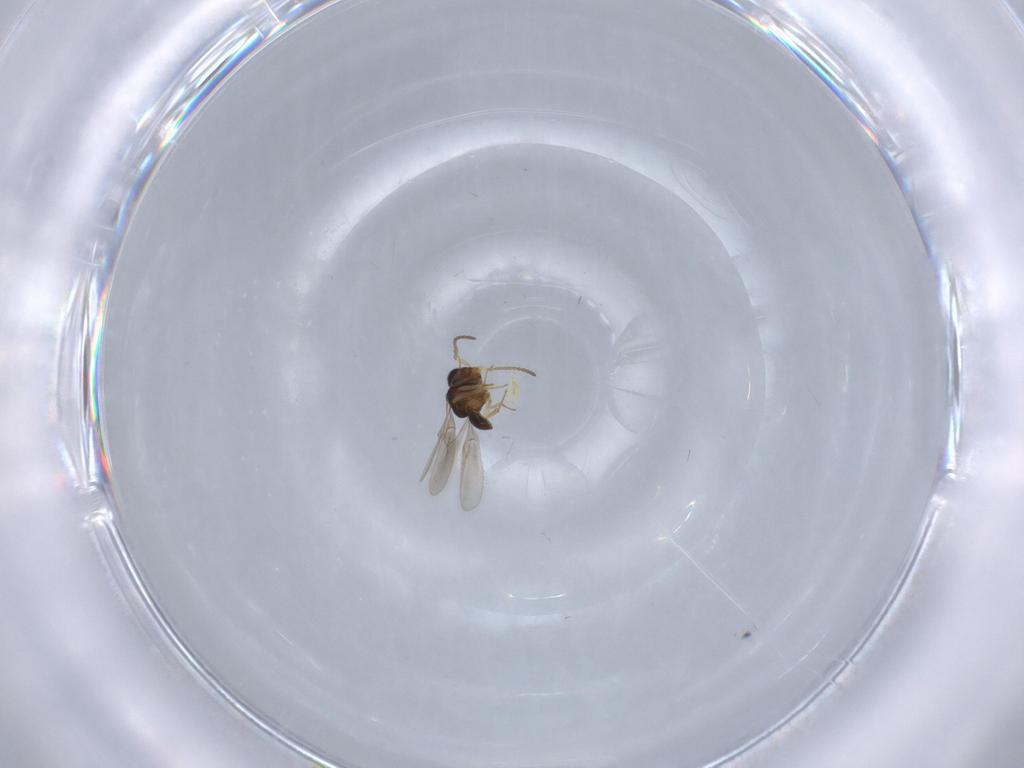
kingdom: Animalia
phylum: Arthropoda
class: Insecta
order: Hymenoptera
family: Scelionidae
